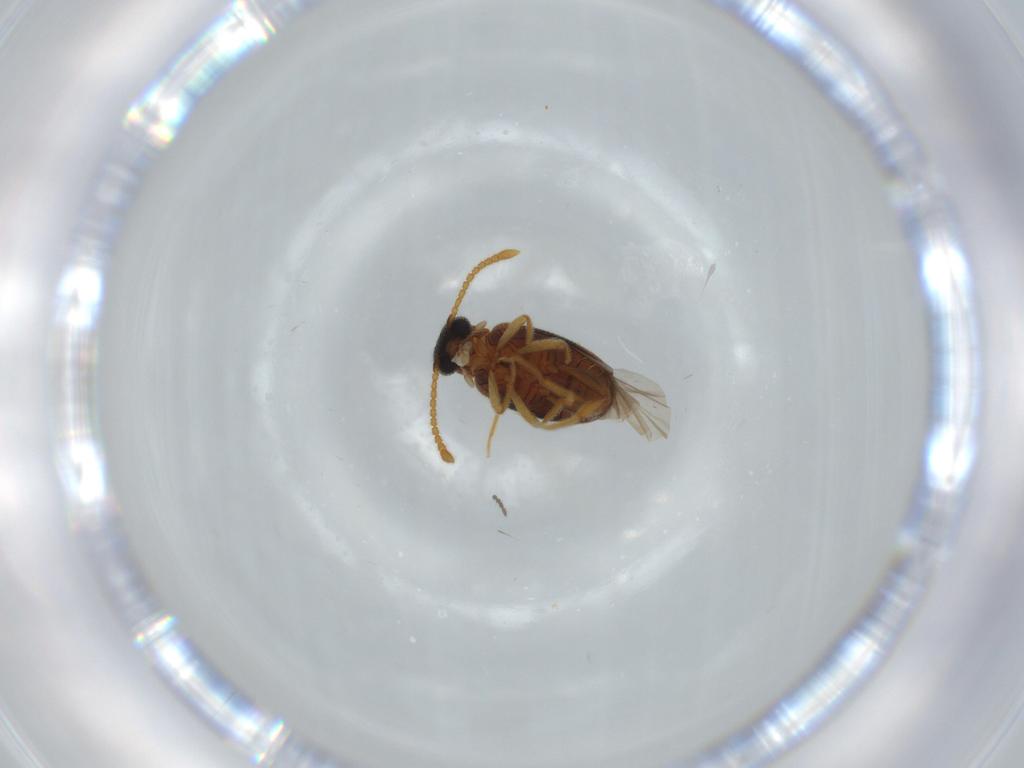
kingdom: Animalia
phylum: Arthropoda
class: Insecta
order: Coleoptera
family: Aderidae
